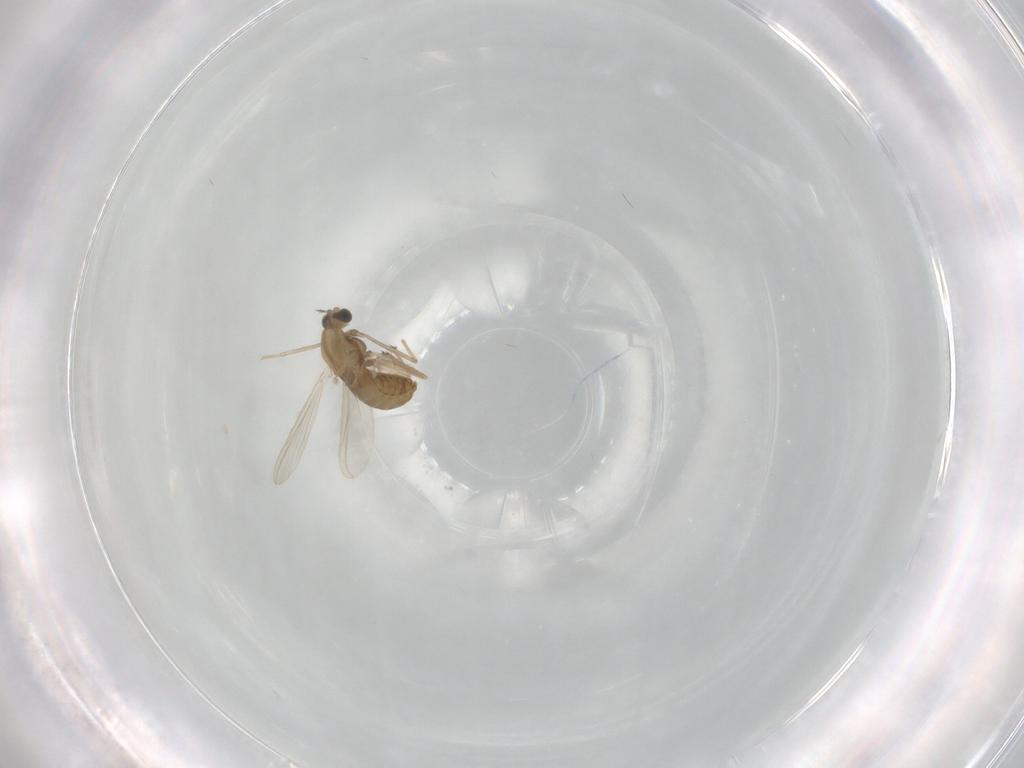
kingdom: Animalia
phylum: Arthropoda
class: Insecta
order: Diptera
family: Chironomidae
